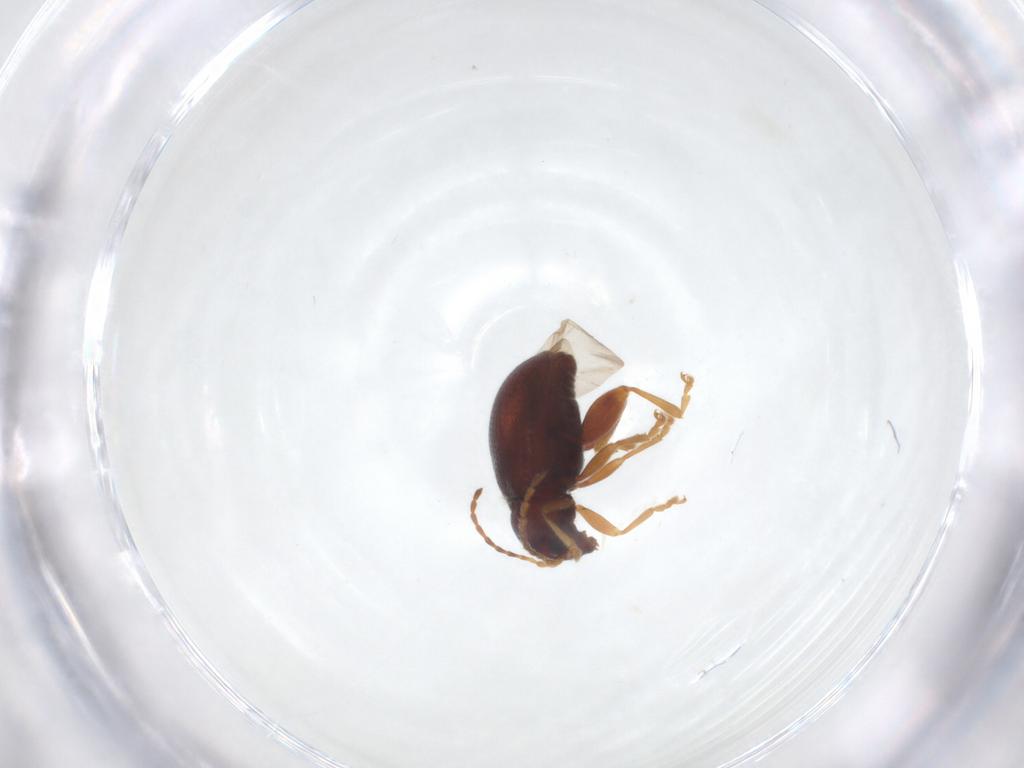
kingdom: Animalia
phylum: Arthropoda
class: Insecta
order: Coleoptera
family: Chrysomelidae
